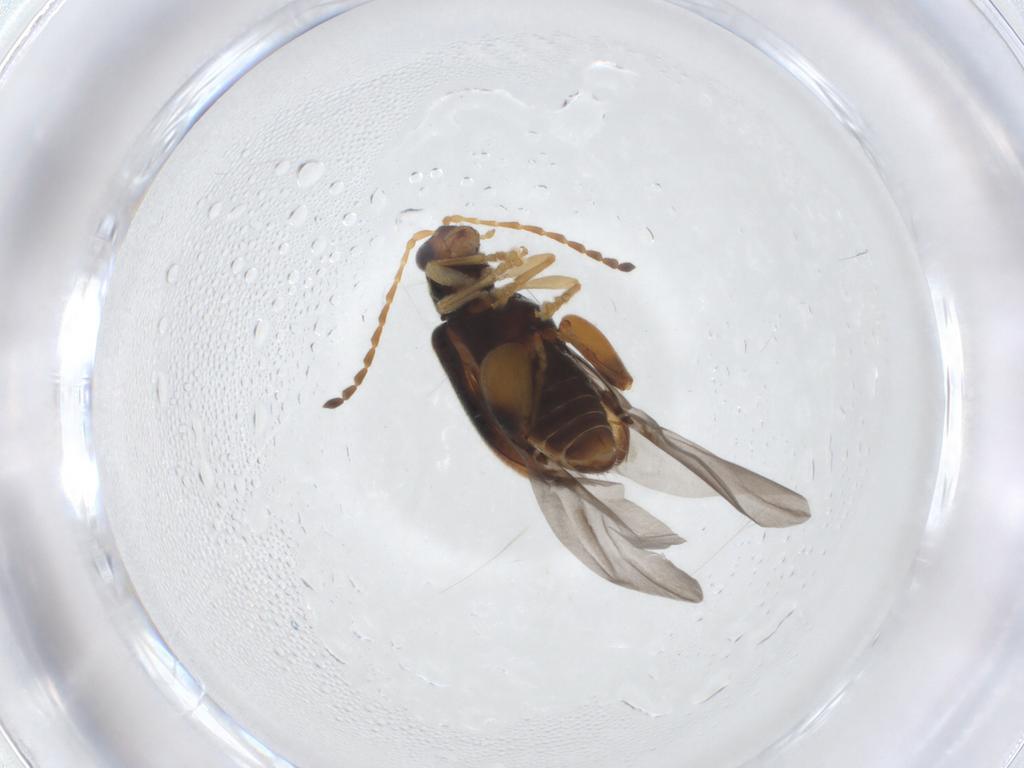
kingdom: Animalia
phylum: Arthropoda
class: Insecta
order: Coleoptera
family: Chrysomelidae
